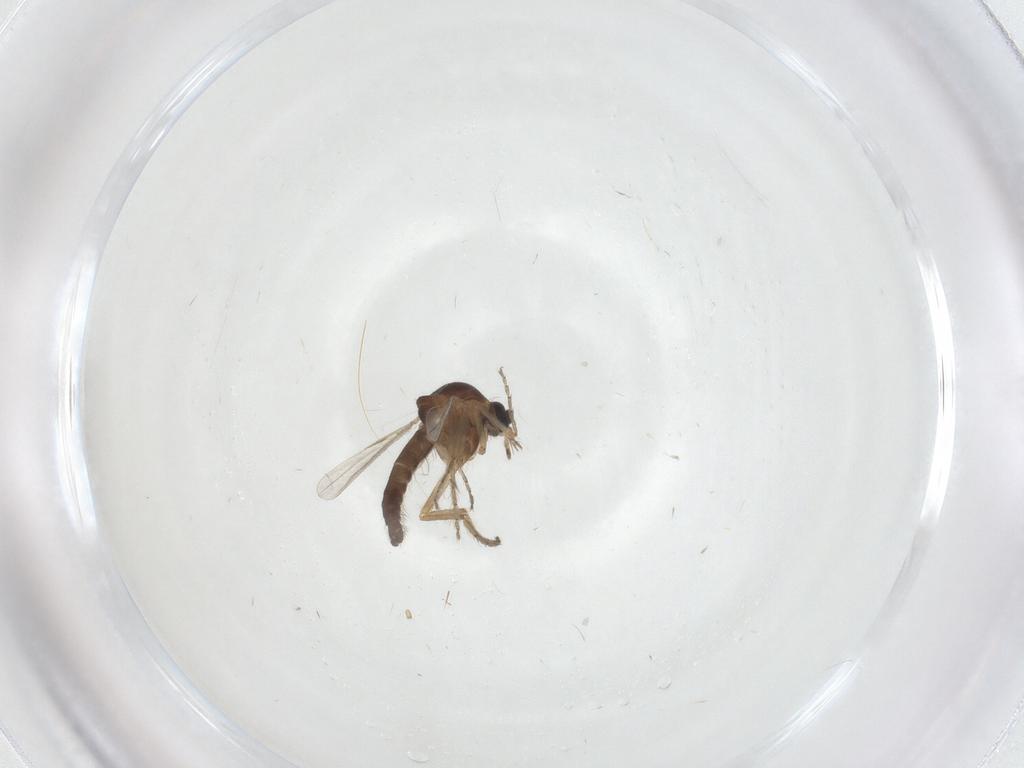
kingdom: Animalia
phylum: Arthropoda
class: Insecta
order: Diptera
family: Ceratopogonidae
